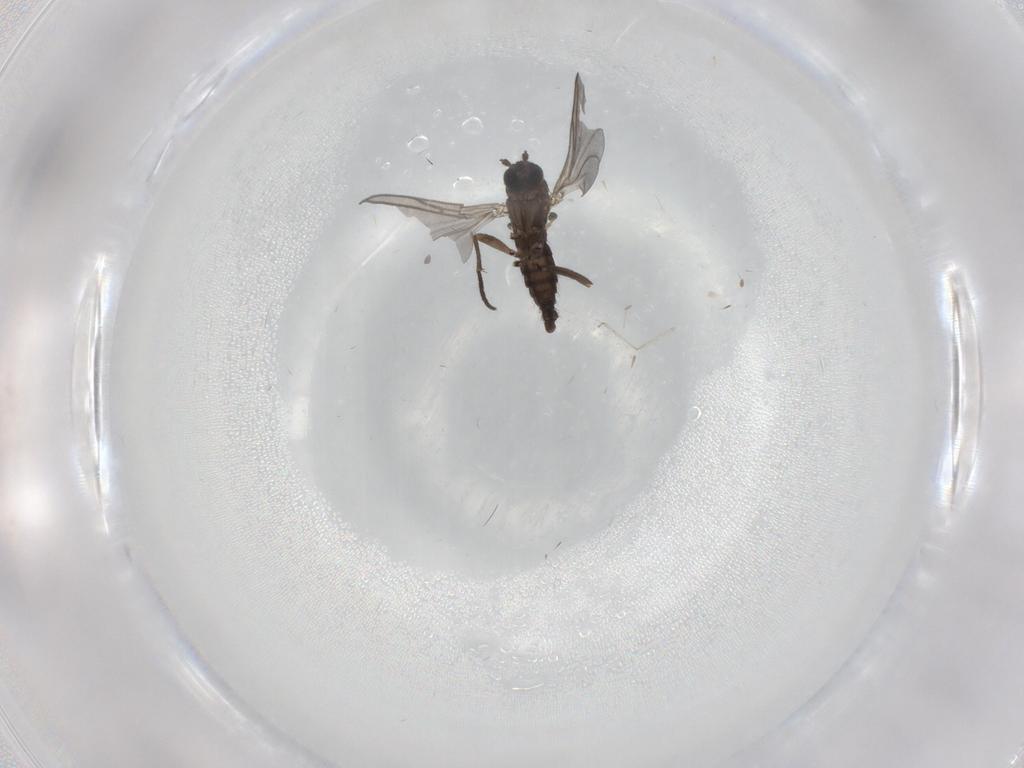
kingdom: Animalia
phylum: Arthropoda
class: Insecta
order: Diptera
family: Sciaridae
